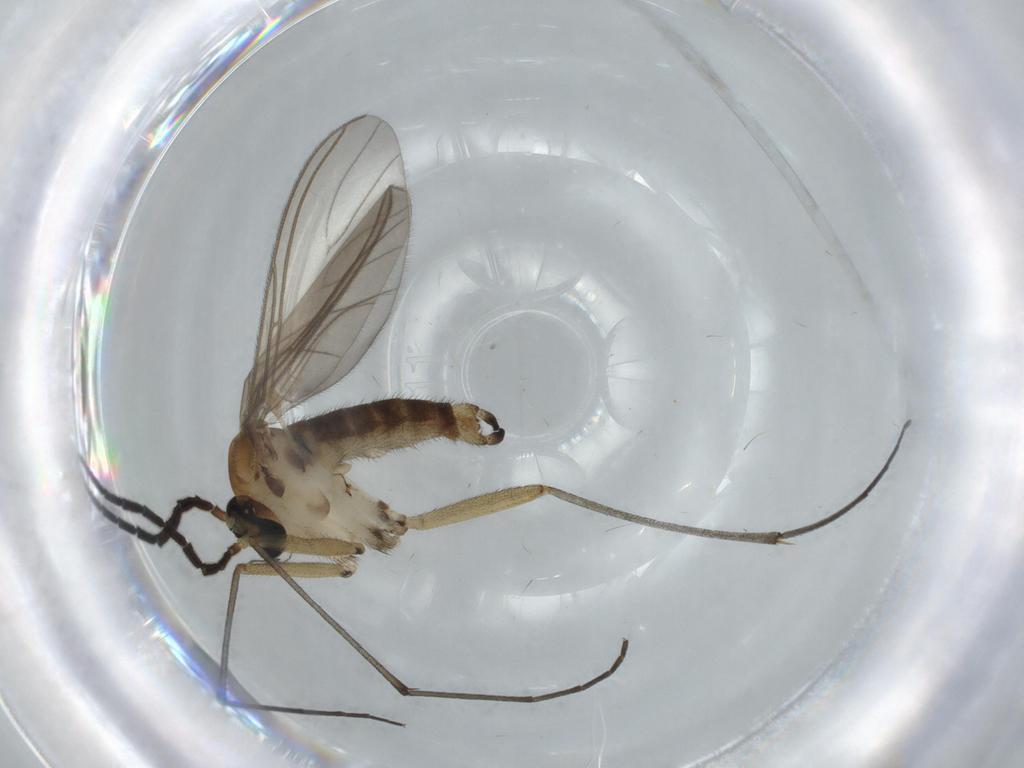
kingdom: Animalia
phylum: Arthropoda
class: Insecta
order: Diptera
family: Sciaridae
